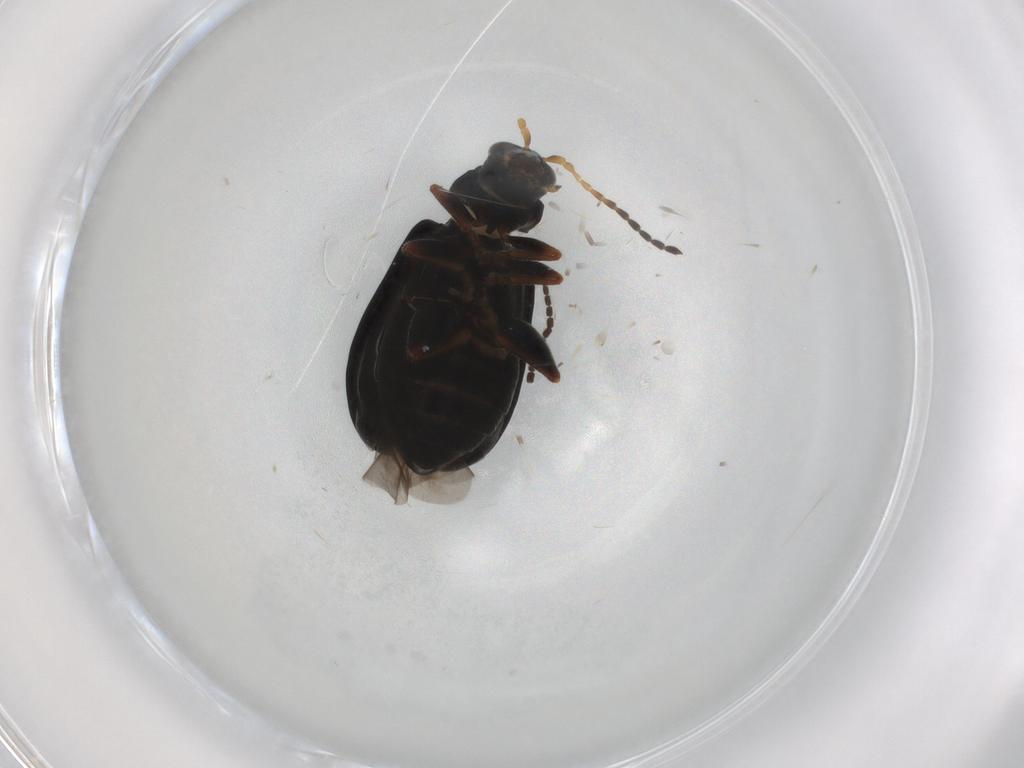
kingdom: Animalia
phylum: Arthropoda
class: Insecta
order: Coleoptera
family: Chrysomelidae
